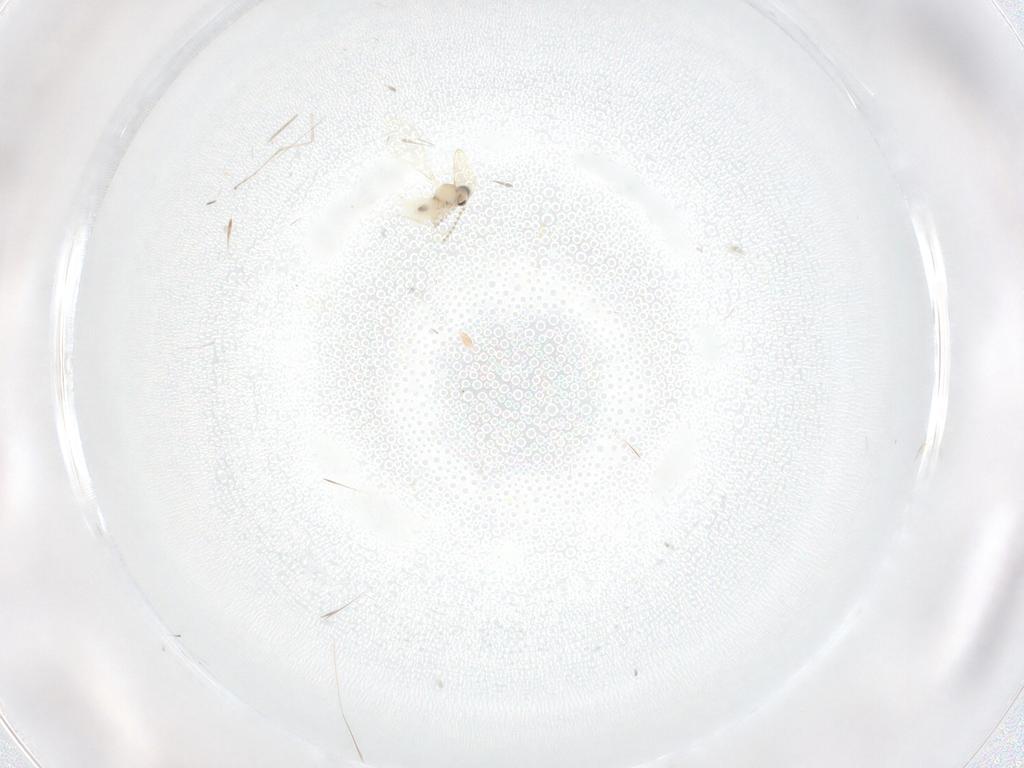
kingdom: Animalia
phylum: Arthropoda
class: Insecta
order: Diptera
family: Cecidomyiidae
